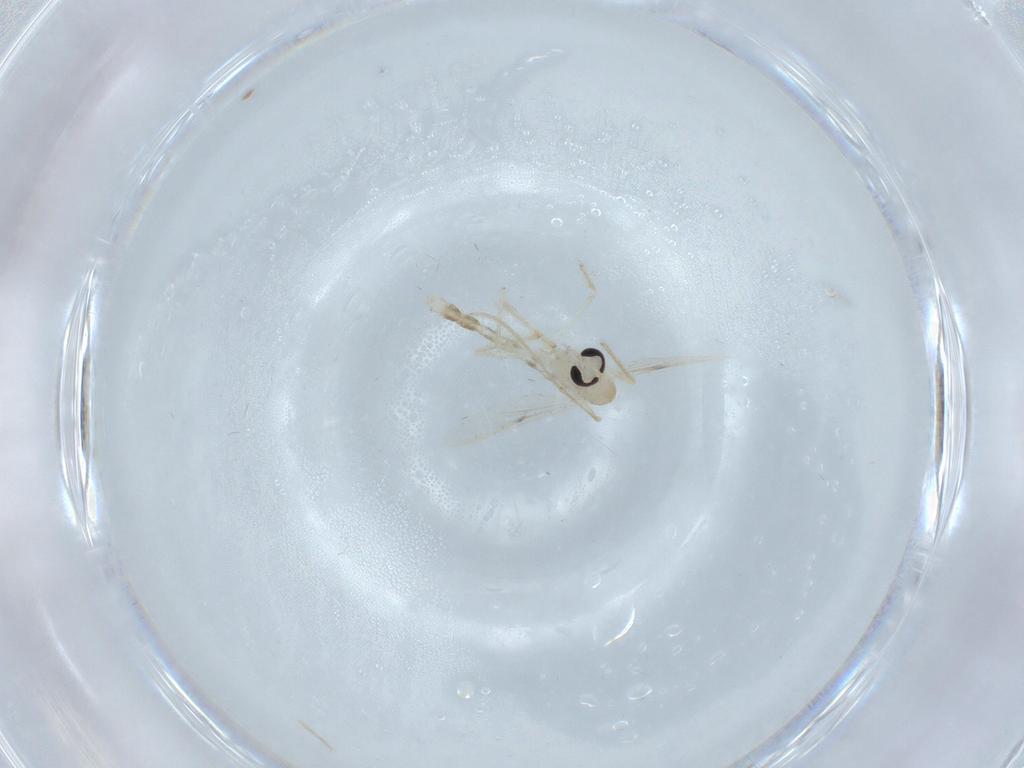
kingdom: Animalia
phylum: Arthropoda
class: Insecta
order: Diptera
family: Chironomidae
